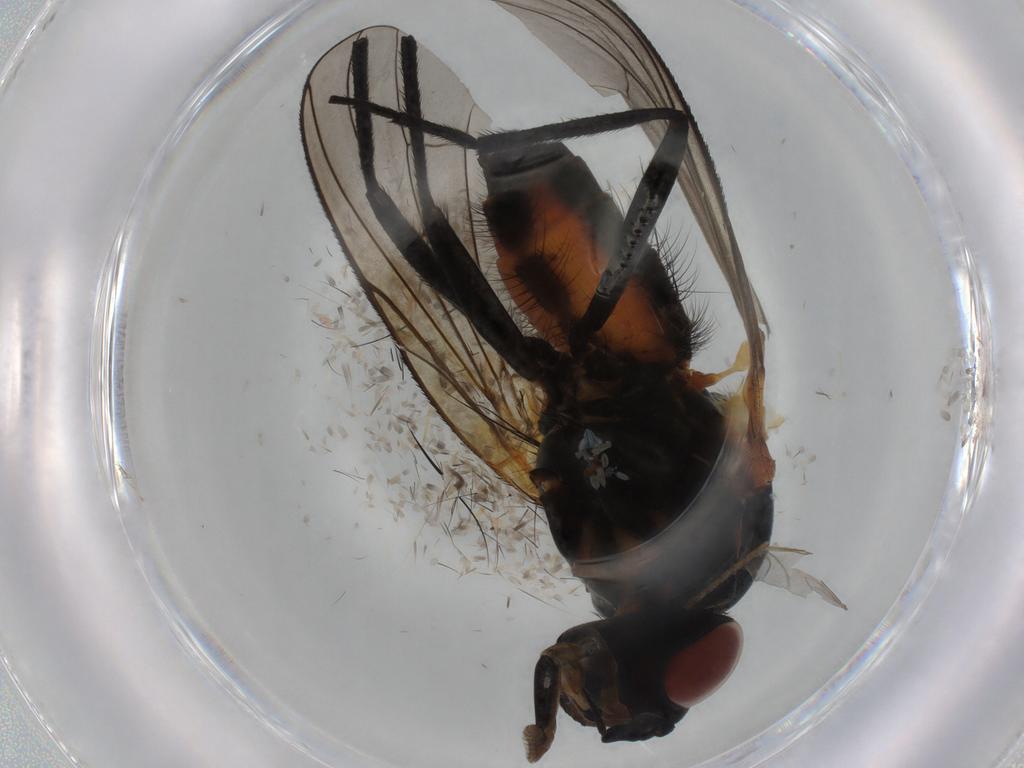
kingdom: Animalia
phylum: Arthropoda
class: Insecta
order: Diptera
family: Anthomyiidae
